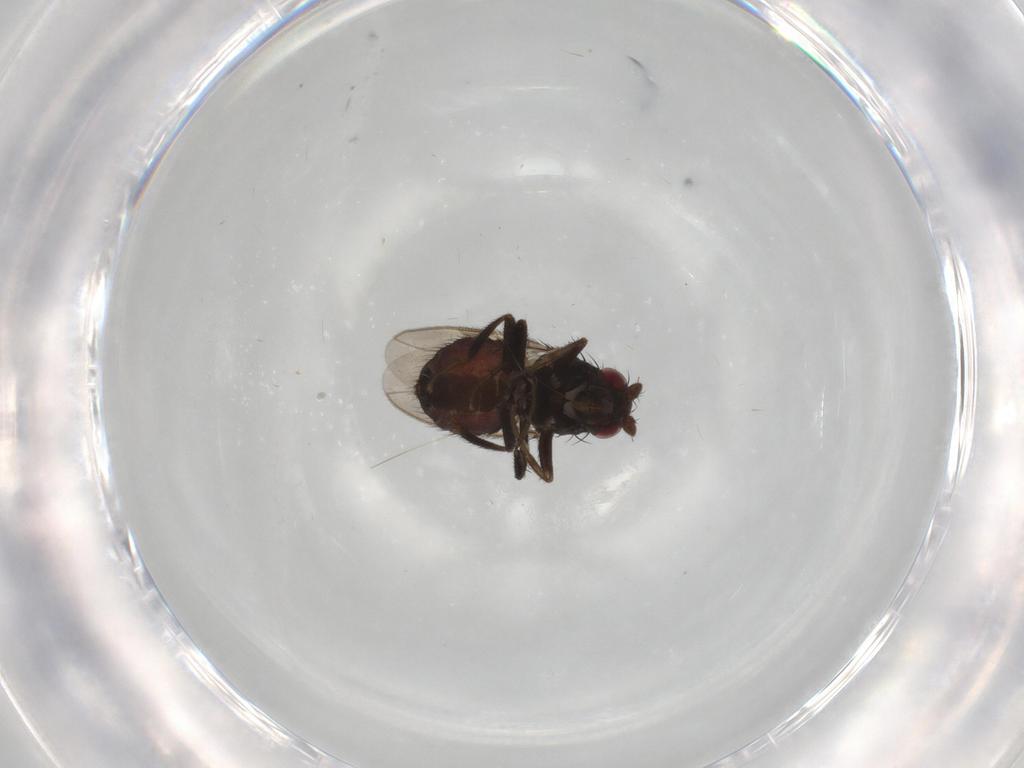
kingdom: Animalia
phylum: Arthropoda
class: Insecta
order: Diptera
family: Sphaeroceridae
